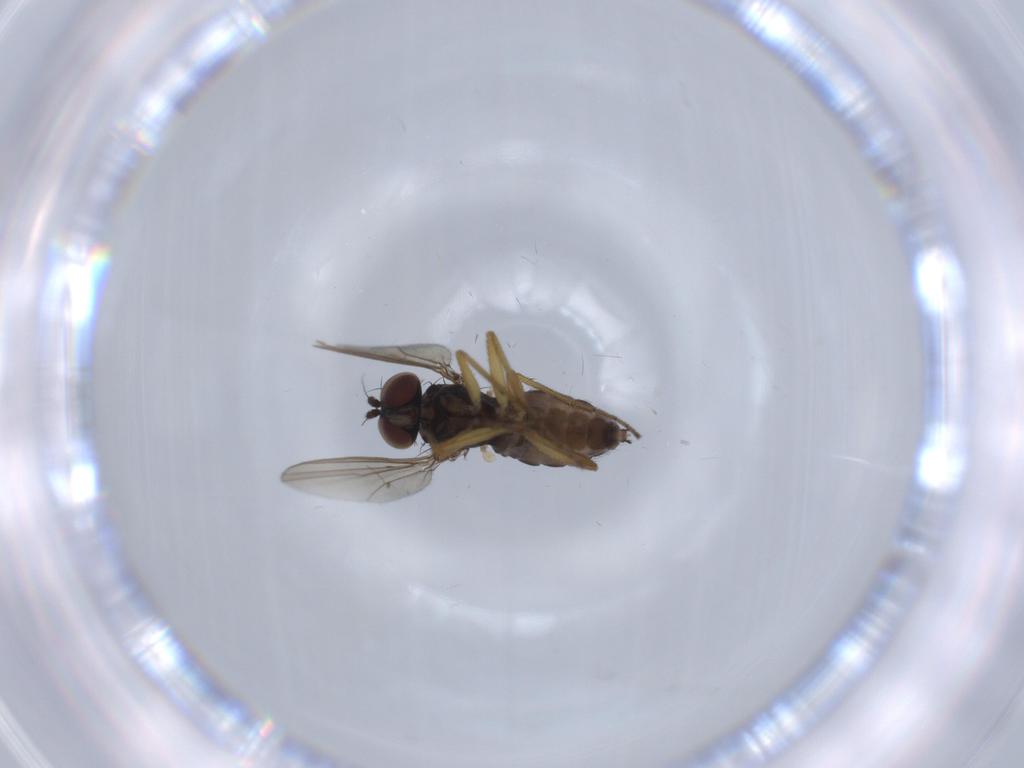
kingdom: Animalia
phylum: Arthropoda
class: Insecta
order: Diptera
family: Dolichopodidae
